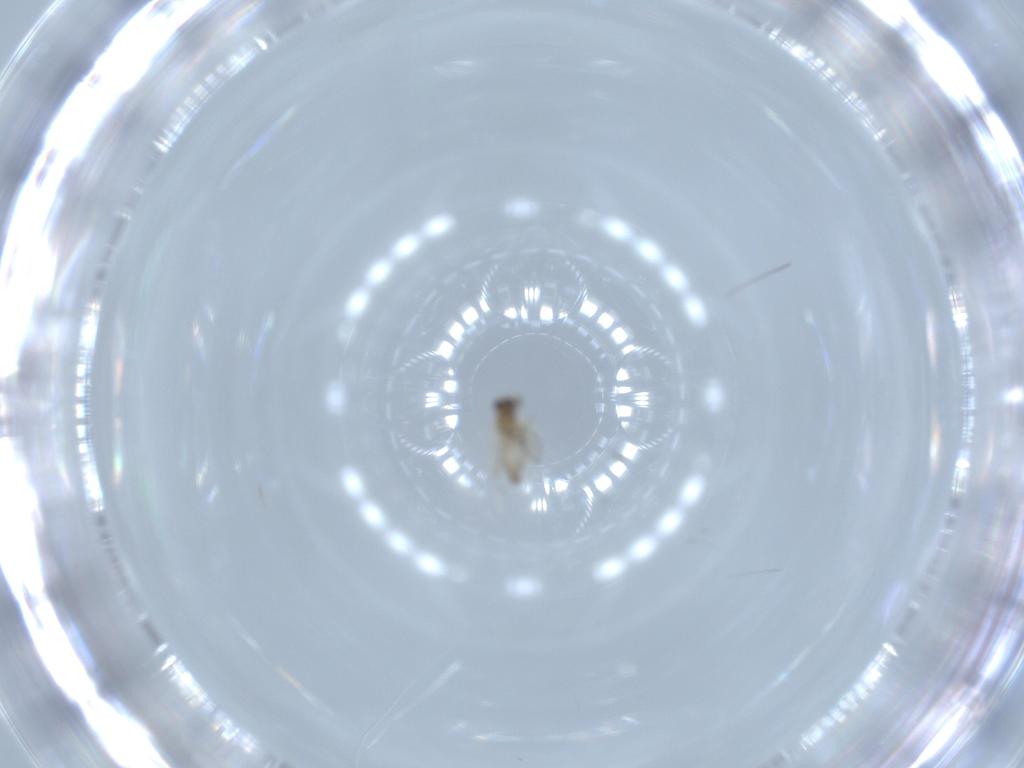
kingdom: Animalia
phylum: Arthropoda
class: Insecta
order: Diptera
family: Cecidomyiidae
